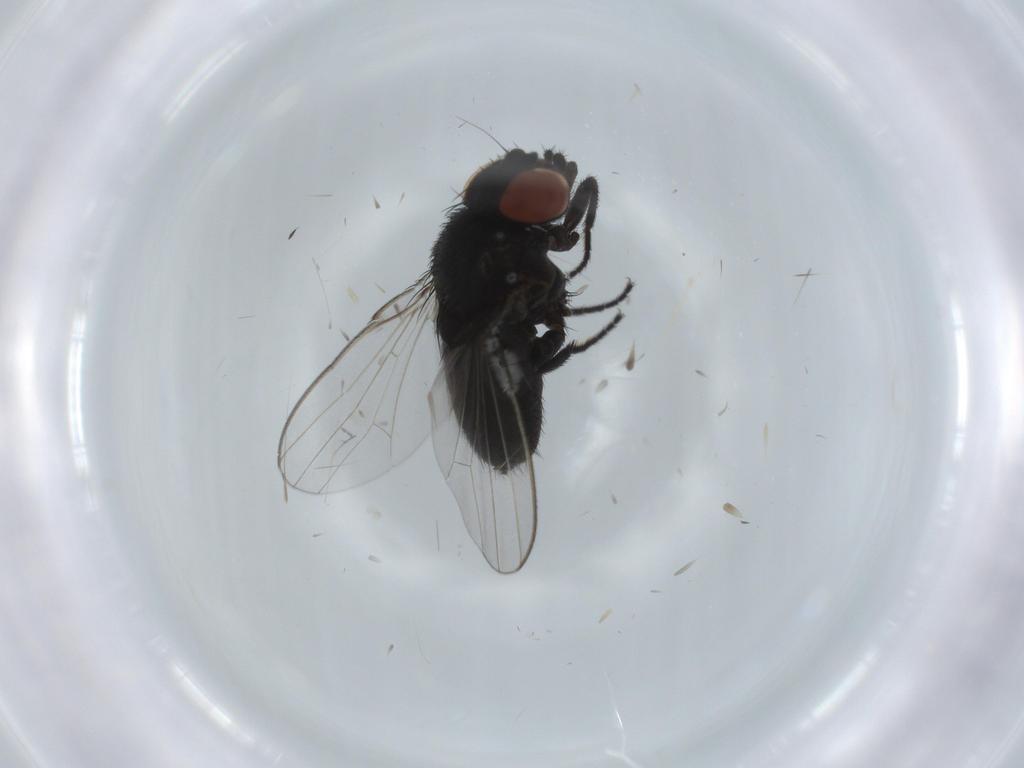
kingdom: Animalia
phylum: Arthropoda
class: Insecta
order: Diptera
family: Milichiidae
